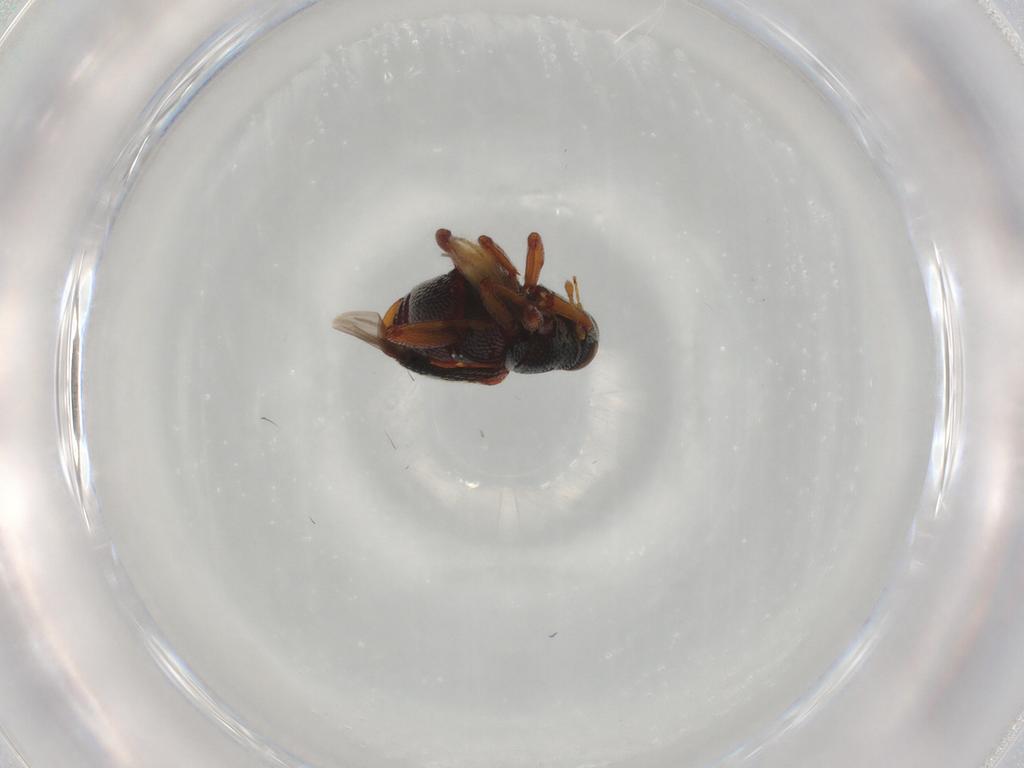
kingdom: Animalia
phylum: Arthropoda
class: Insecta
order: Coleoptera
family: Curculionidae
